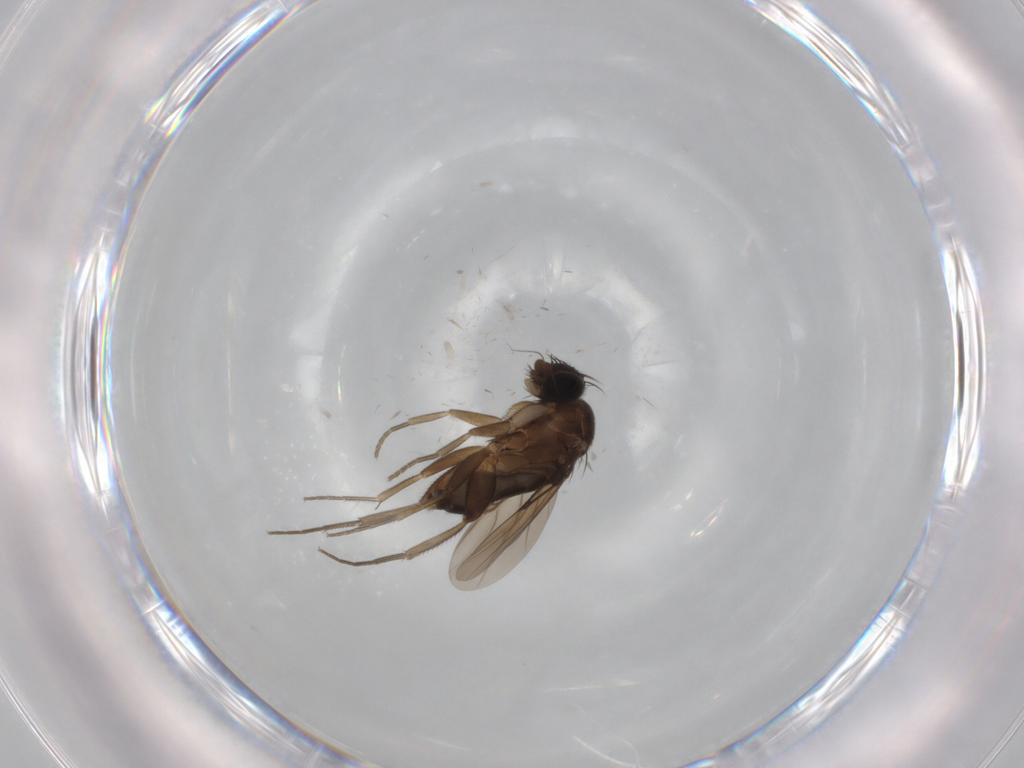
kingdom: Animalia
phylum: Arthropoda
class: Insecta
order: Diptera
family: Phoridae
